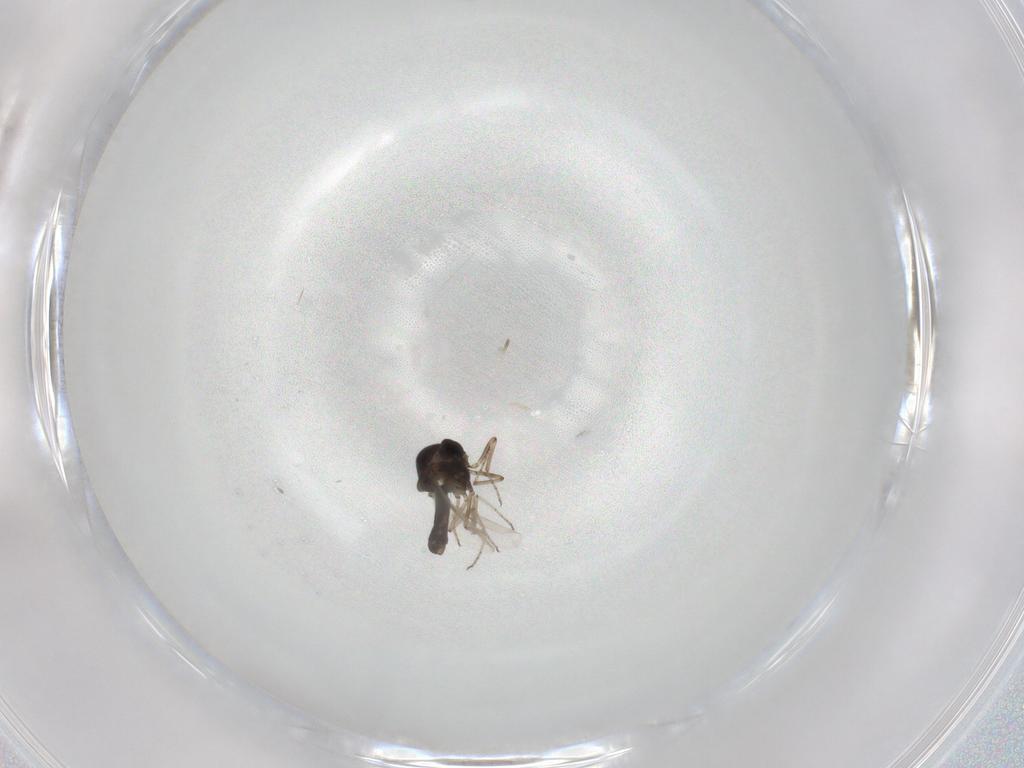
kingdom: Animalia
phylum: Arthropoda
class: Insecta
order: Diptera
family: Ceratopogonidae
